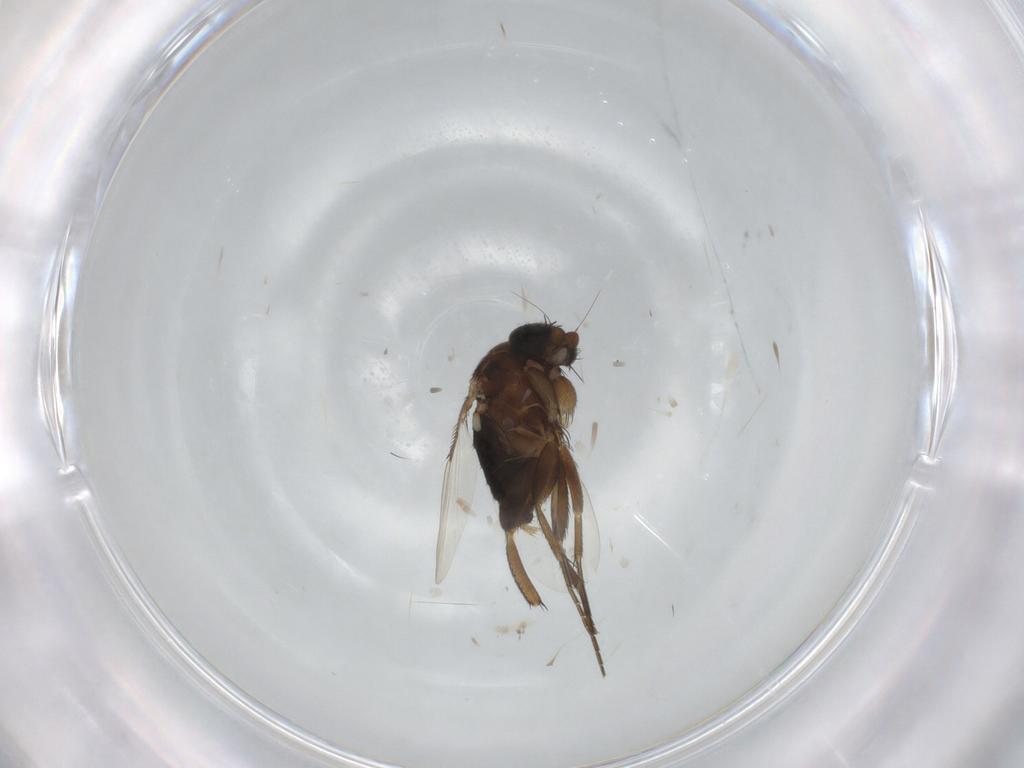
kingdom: Animalia
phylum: Arthropoda
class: Insecta
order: Diptera
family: Phoridae
